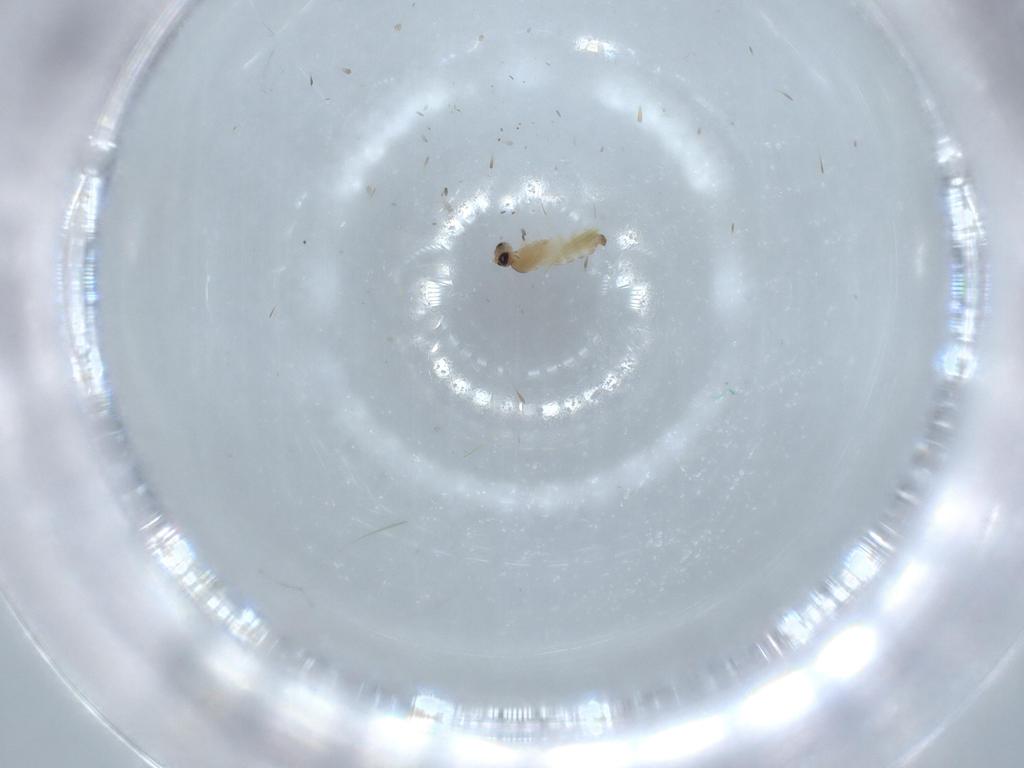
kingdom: Animalia
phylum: Arthropoda
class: Insecta
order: Diptera
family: Cecidomyiidae
